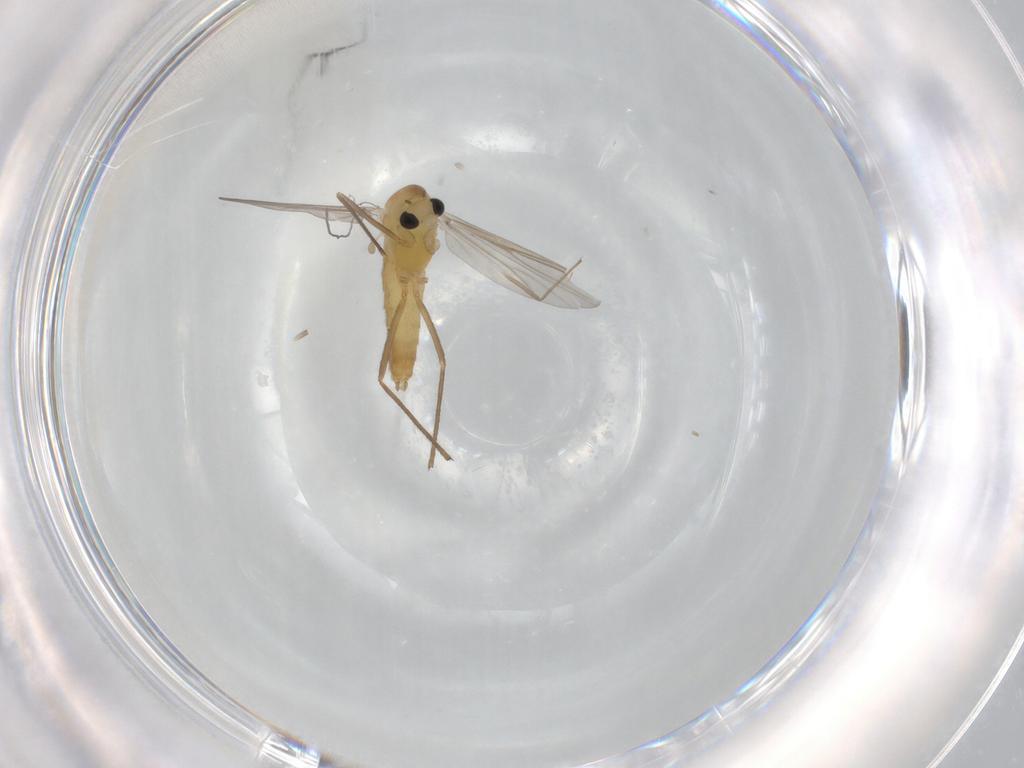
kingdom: Animalia
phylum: Arthropoda
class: Insecta
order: Diptera
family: Chironomidae
